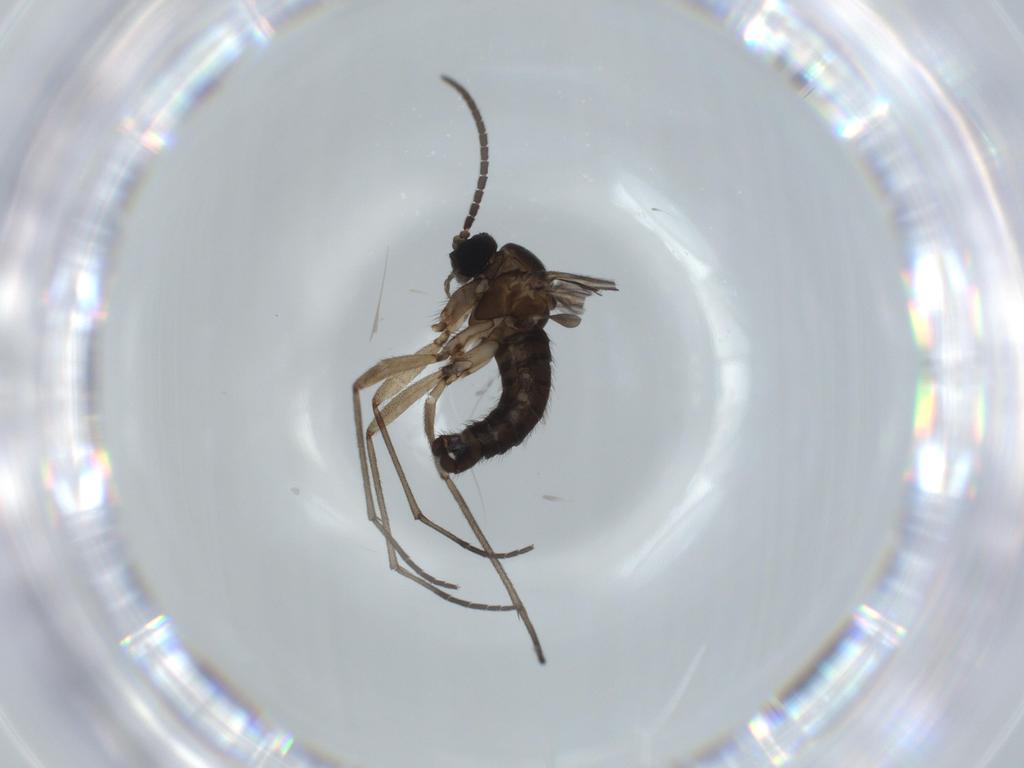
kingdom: Animalia
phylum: Arthropoda
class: Insecta
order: Diptera
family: Sciaridae
